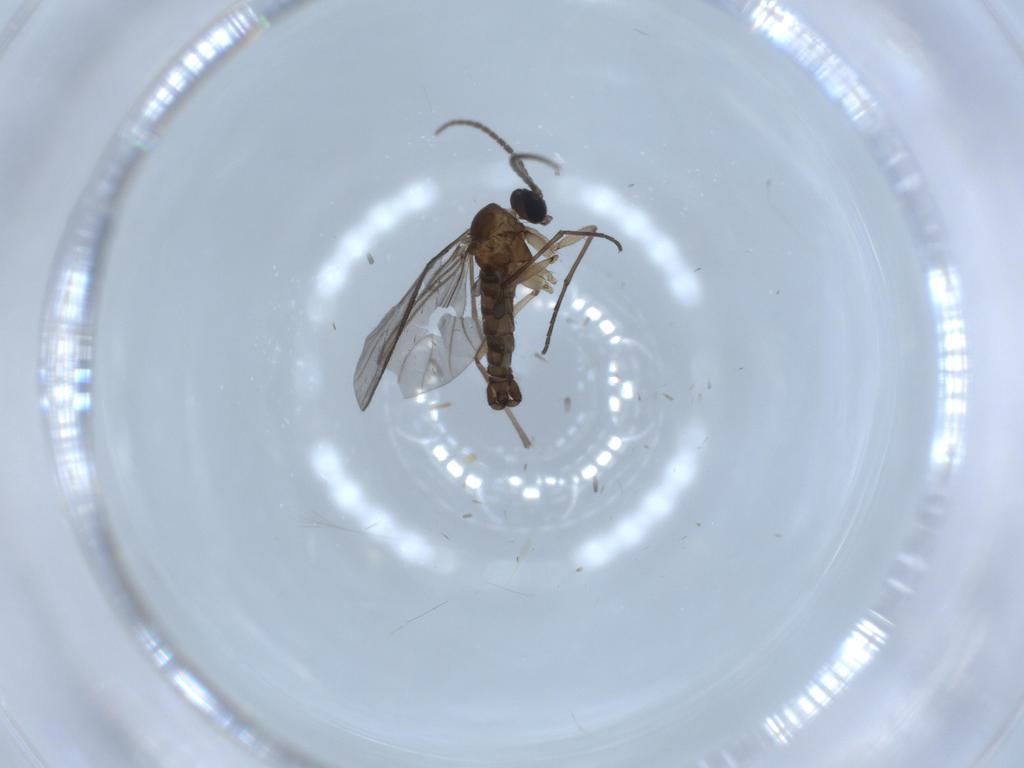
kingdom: Animalia
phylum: Arthropoda
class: Insecta
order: Diptera
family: Sciaridae
